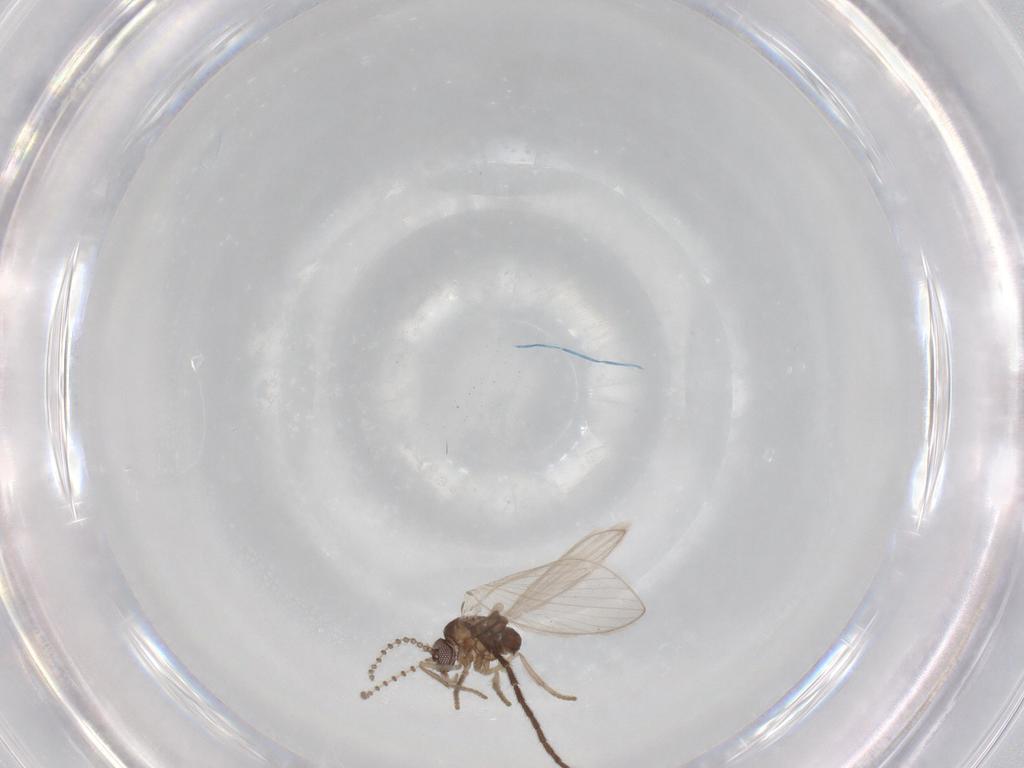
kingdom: Animalia
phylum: Arthropoda
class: Insecta
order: Diptera
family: Psychodidae
